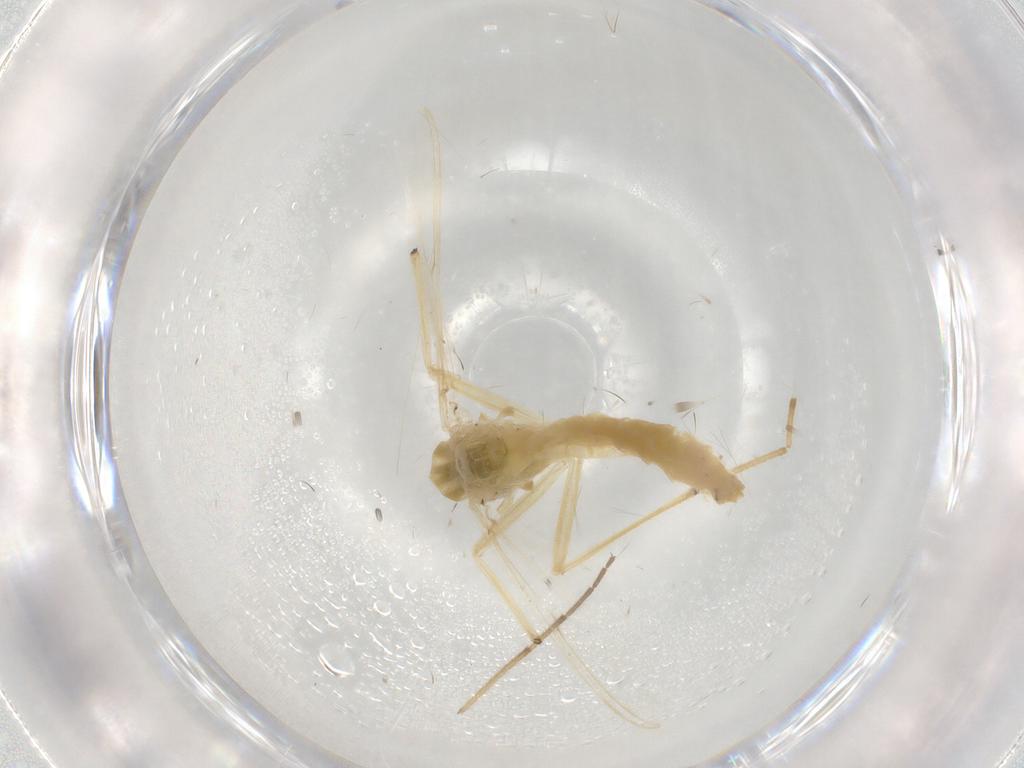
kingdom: Animalia
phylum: Arthropoda
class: Insecta
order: Diptera
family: Chironomidae
